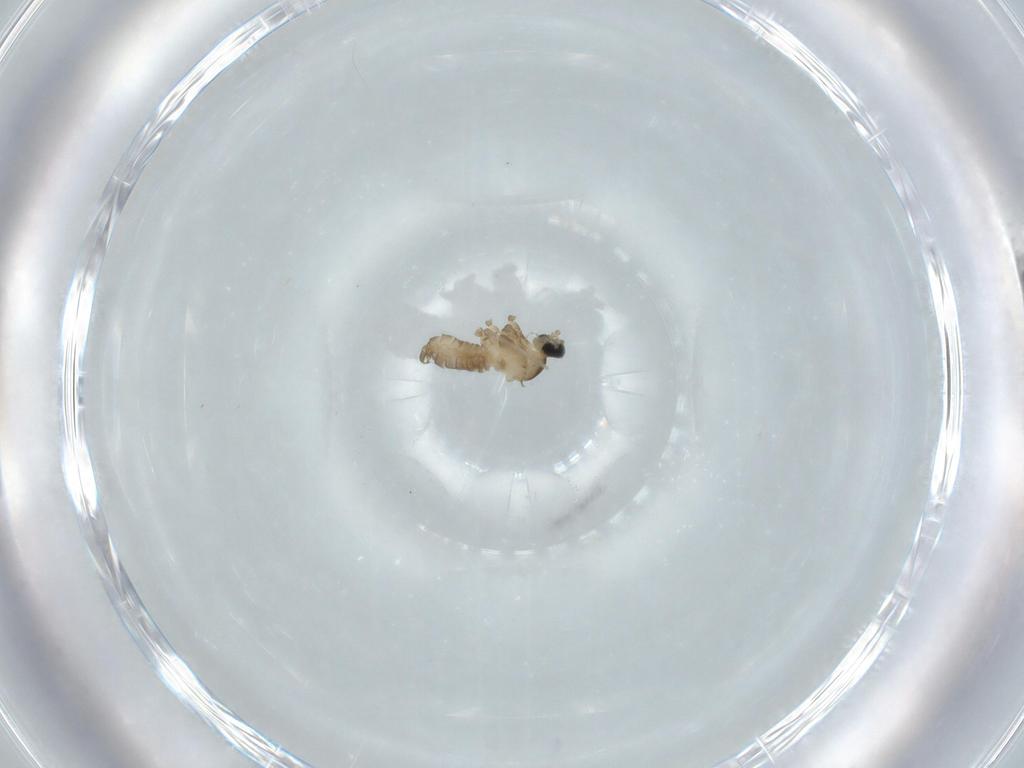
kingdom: Animalia
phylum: Arthropoda
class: Insecta
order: Diptera
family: Cecidomyiidae
